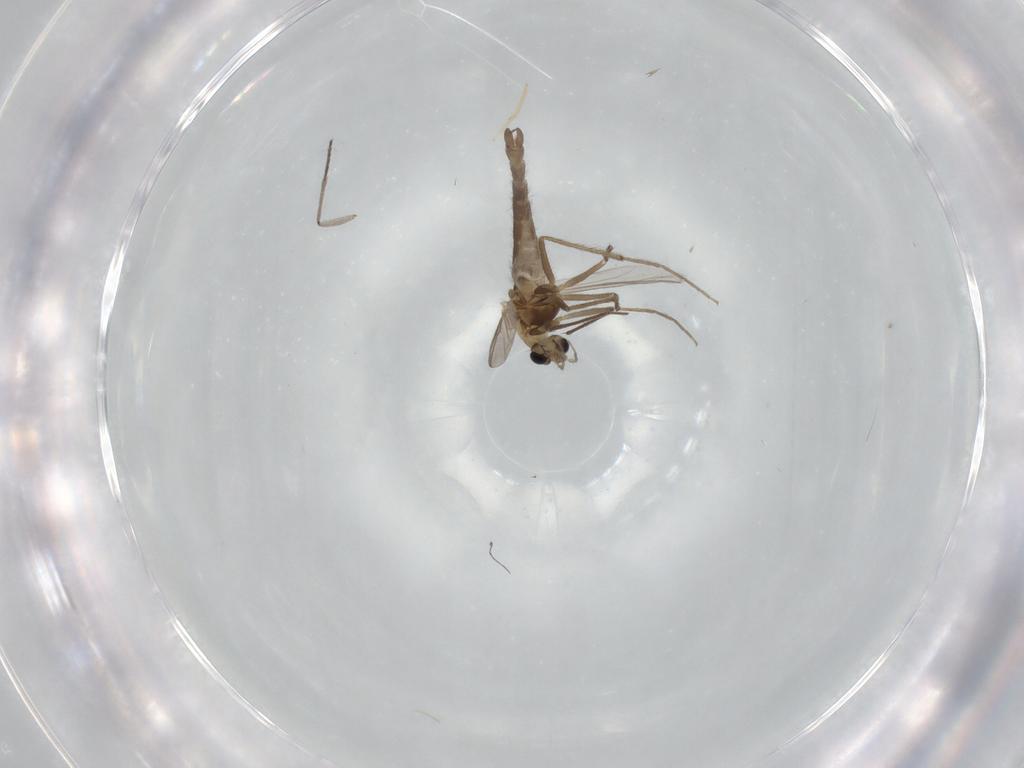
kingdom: Animalia
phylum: Arthropoda
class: Insecta
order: Diptera
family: Chironomidae
